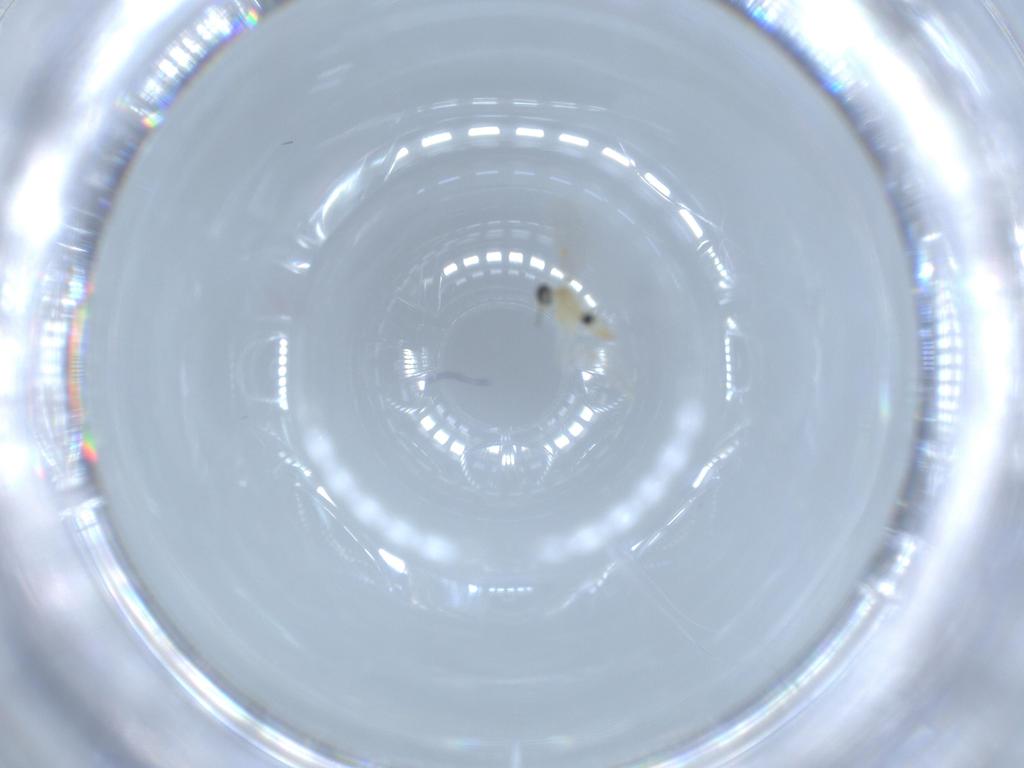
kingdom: Animalia
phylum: Arthropoda
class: Insecta
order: Diptera
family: Cecidomyiidae
